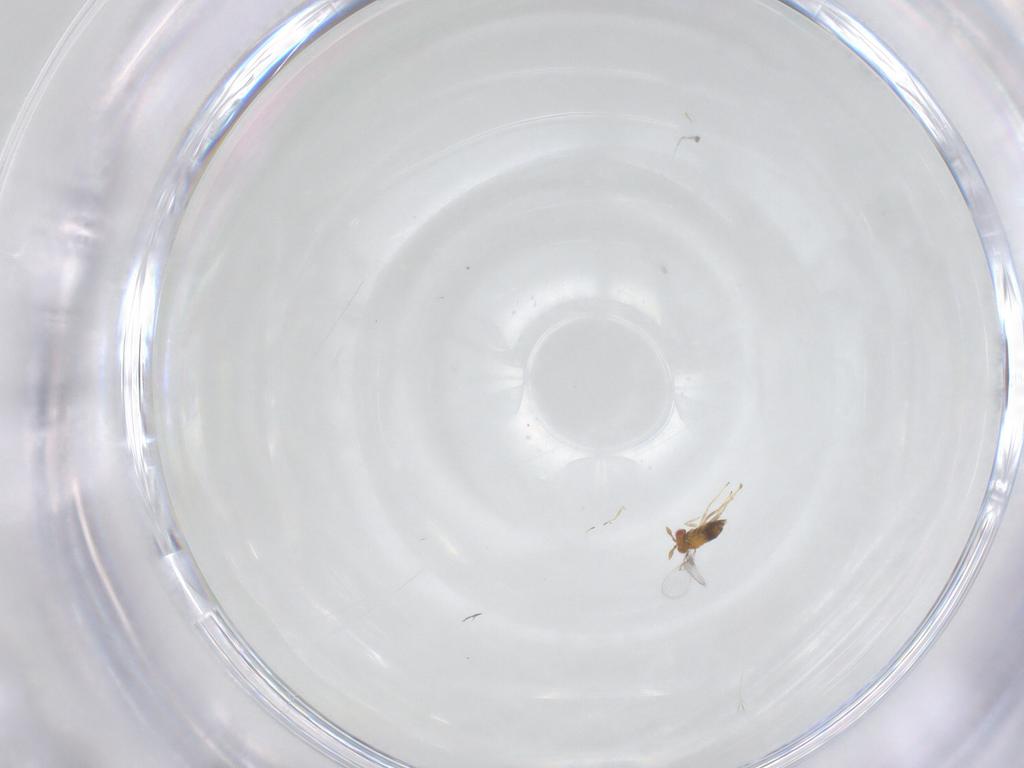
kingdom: Animalia
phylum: Arthropoda
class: Insecta
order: Hymenoptera
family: Trichogrammatidae
